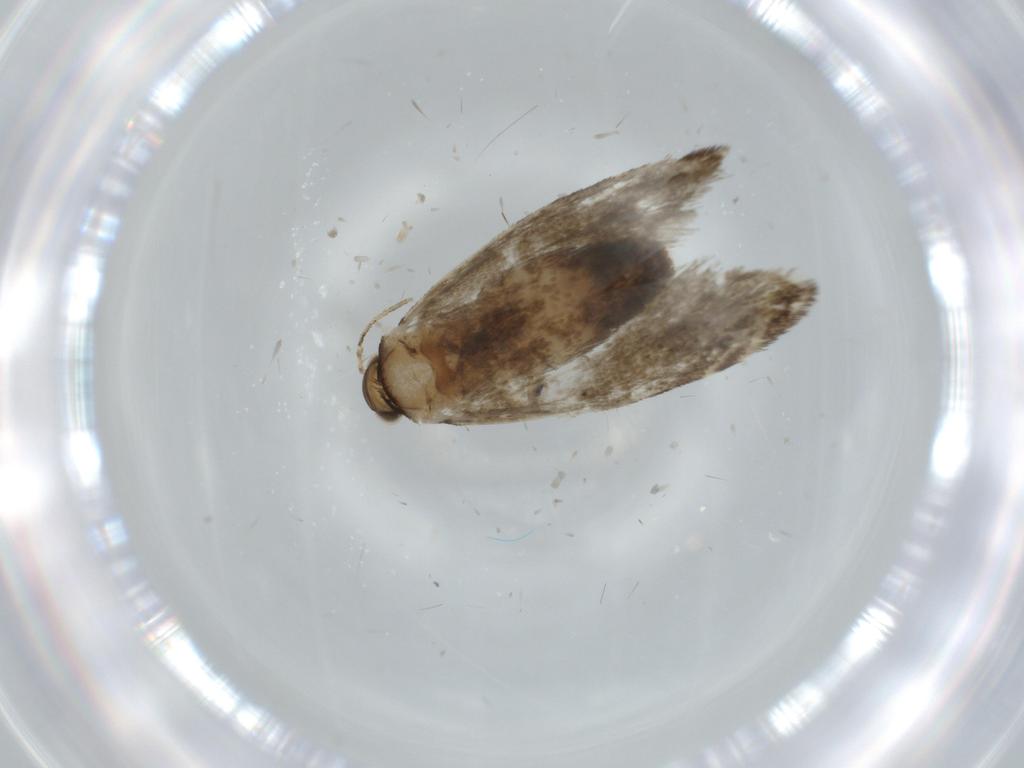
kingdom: Animalia
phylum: Arthropoda
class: Insecta
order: Lepidoptera
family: Tineidae
